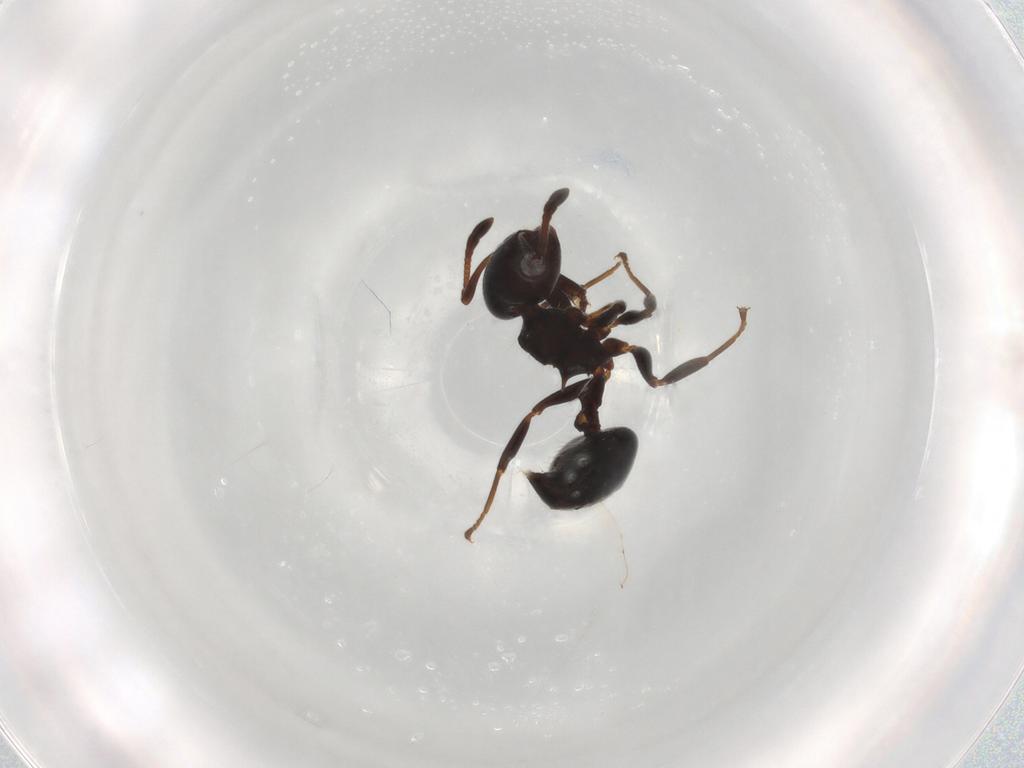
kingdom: Animalia
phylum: Arthropoda
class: Insecta
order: Hymenoptera
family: Formicidae
